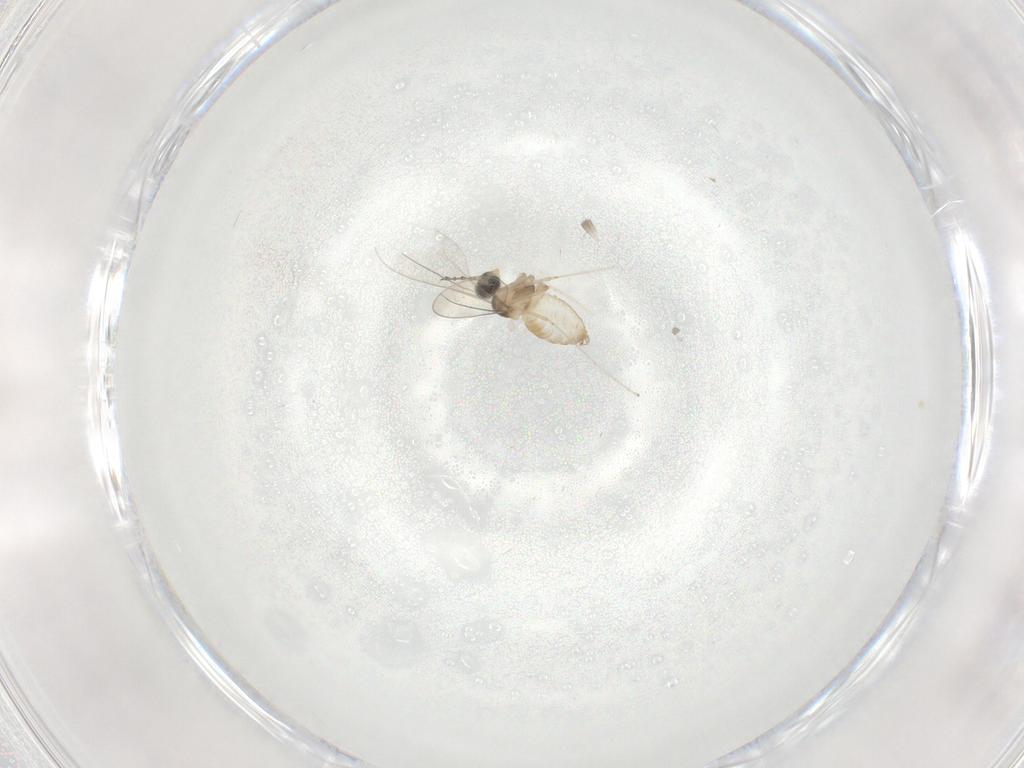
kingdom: Animalia
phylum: Arthropoda
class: Insecta
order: Diptera
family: Cecidomyiidae
